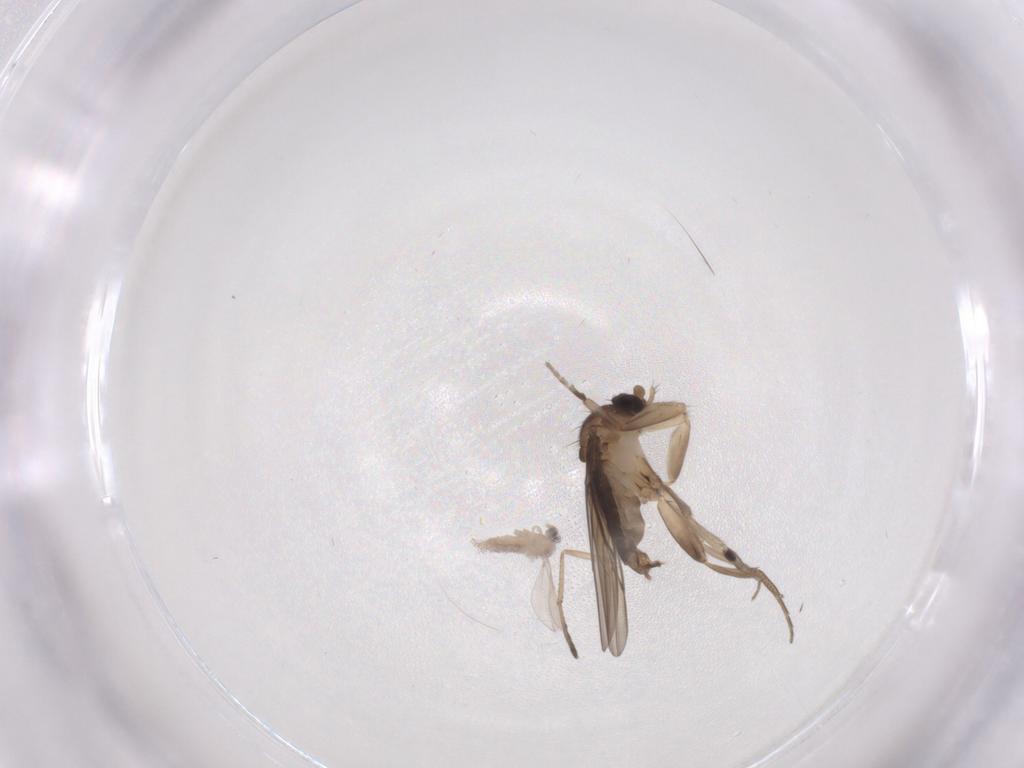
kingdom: Animalia
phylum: Arthropoda
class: Insecta
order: Diptera
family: Phoridae
